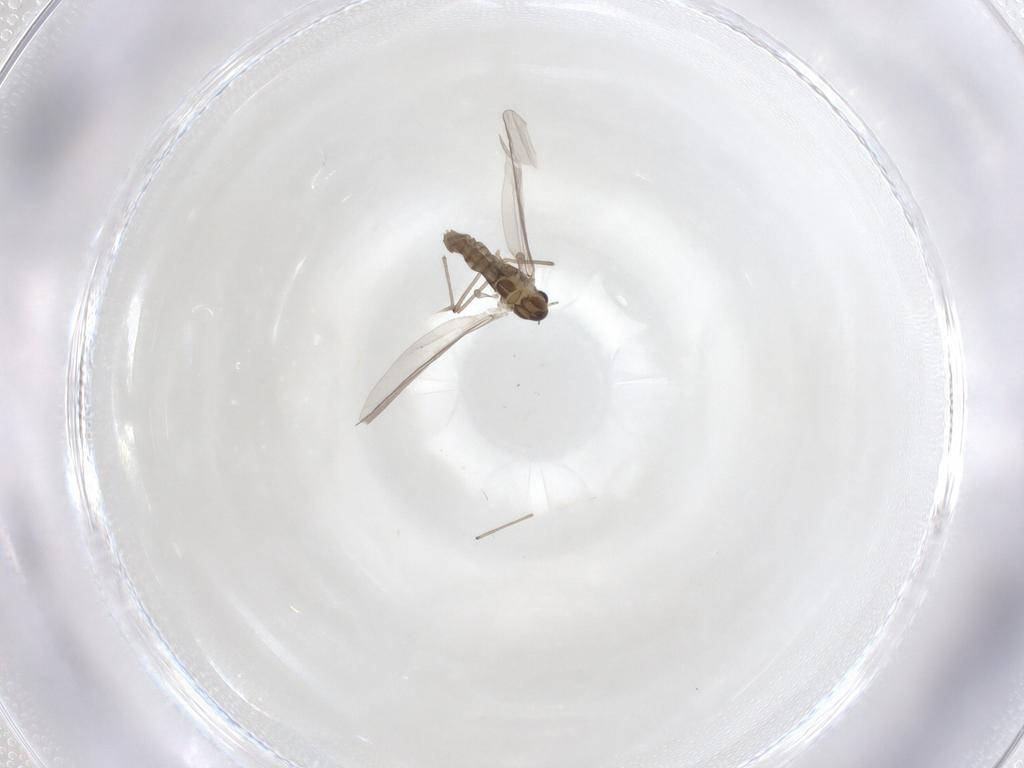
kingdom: Animalia
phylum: Arthropoda
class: Insecta
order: Diptera
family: Chironomidae
